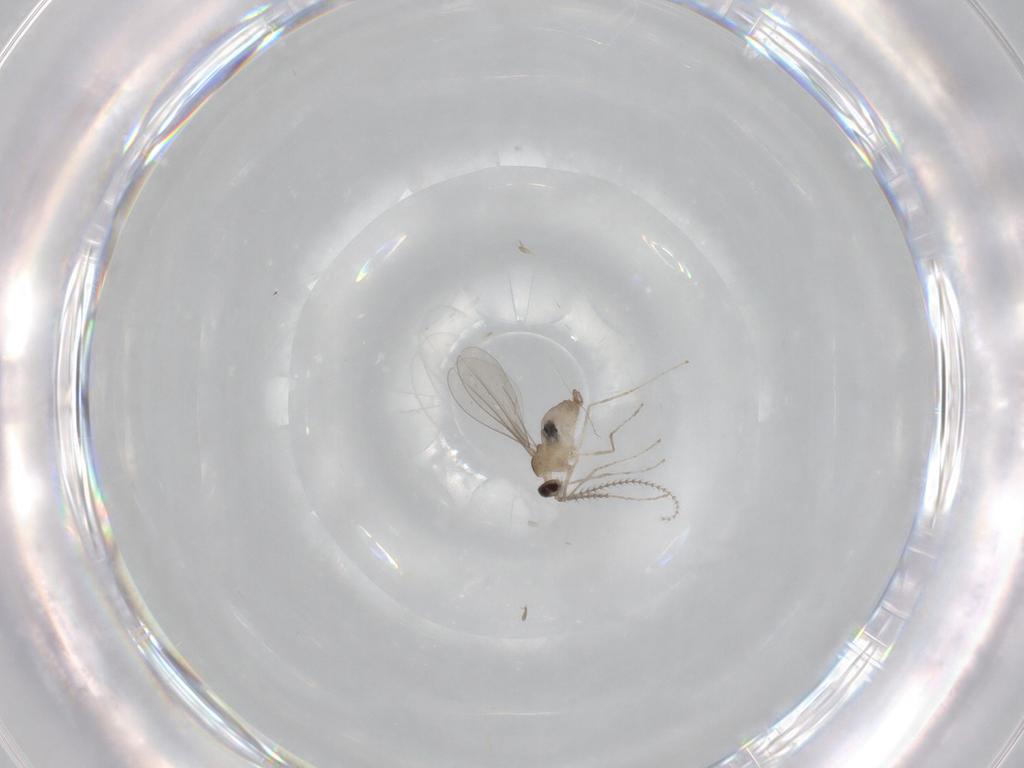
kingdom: Animalia
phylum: Arthropoda
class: Insecta
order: Diptera
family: Cecidomyiidae
